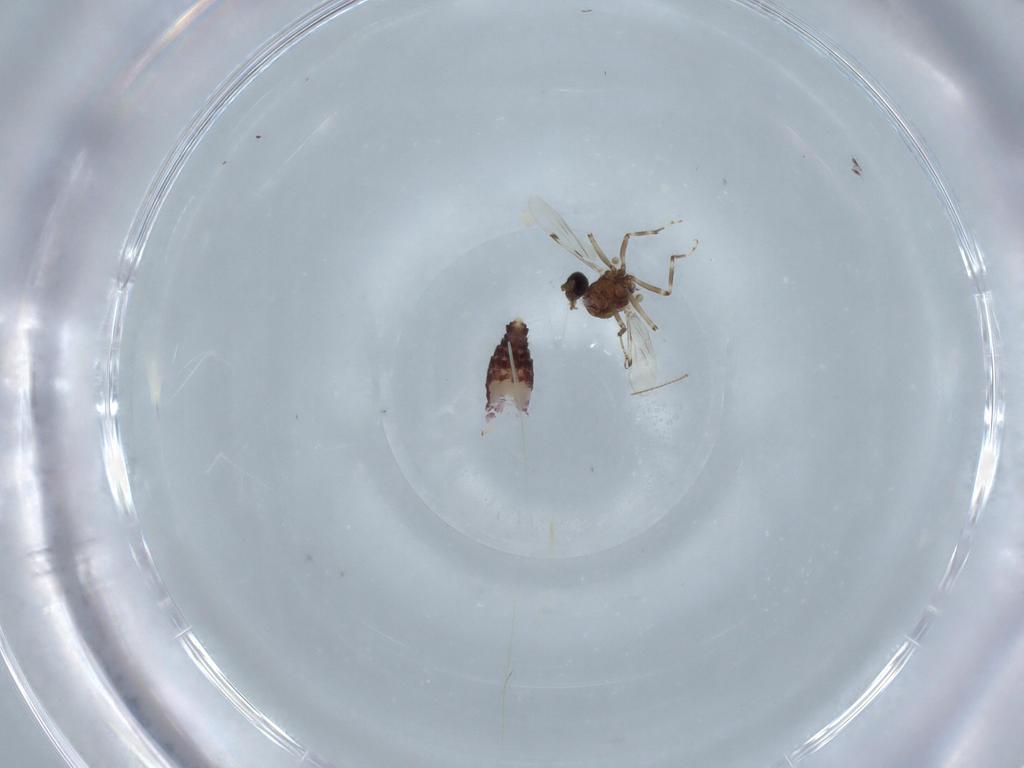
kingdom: Animalia
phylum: Arthropoda
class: Insecta
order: Diptera
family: Ceratopogonidae
